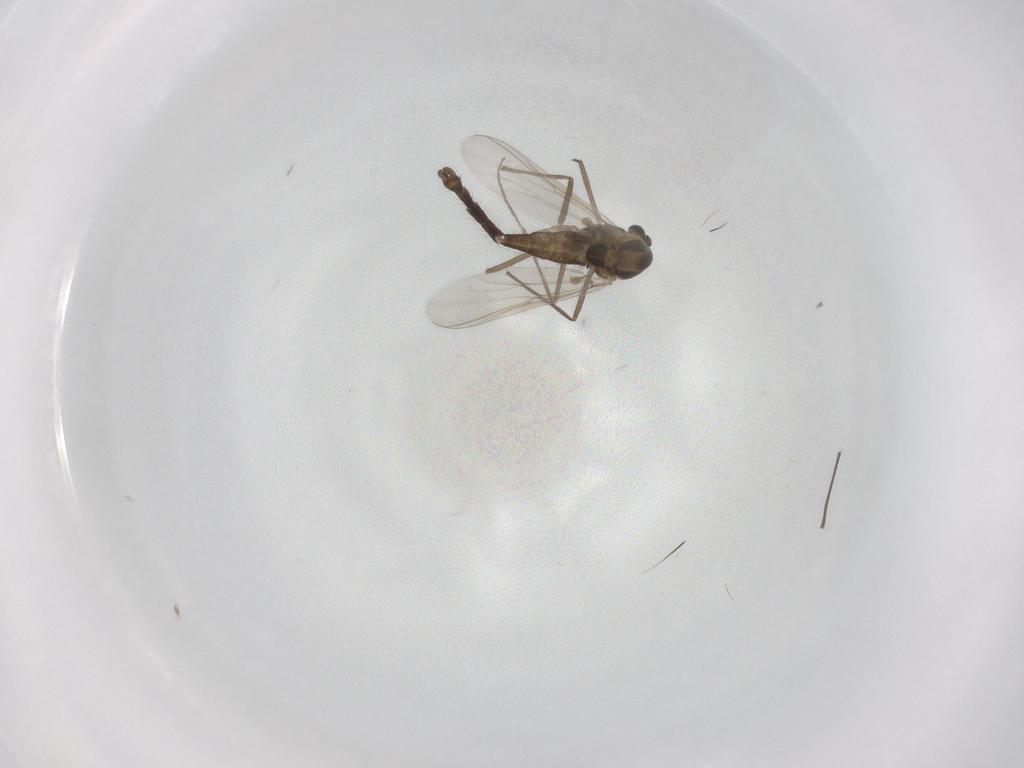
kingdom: Animalia
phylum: Arthropoda
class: Insecta
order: Diptera
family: Chironomidae
